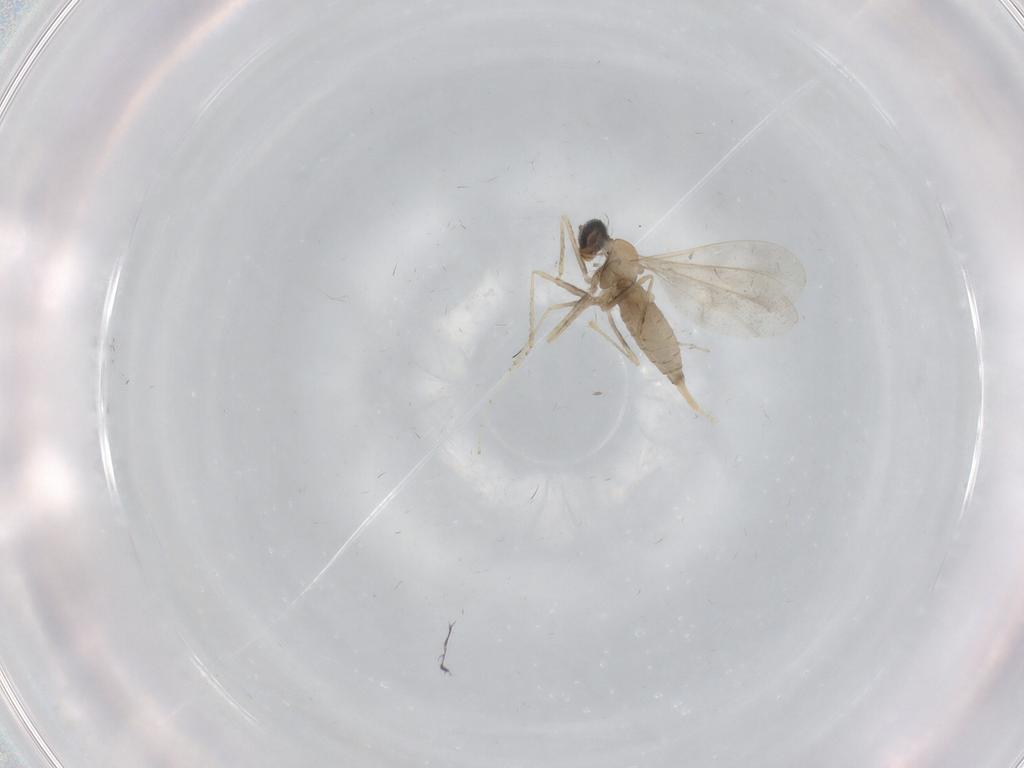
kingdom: Animalia
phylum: Arthropoda
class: Insecta
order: Diptera
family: Cecidomyiidae
